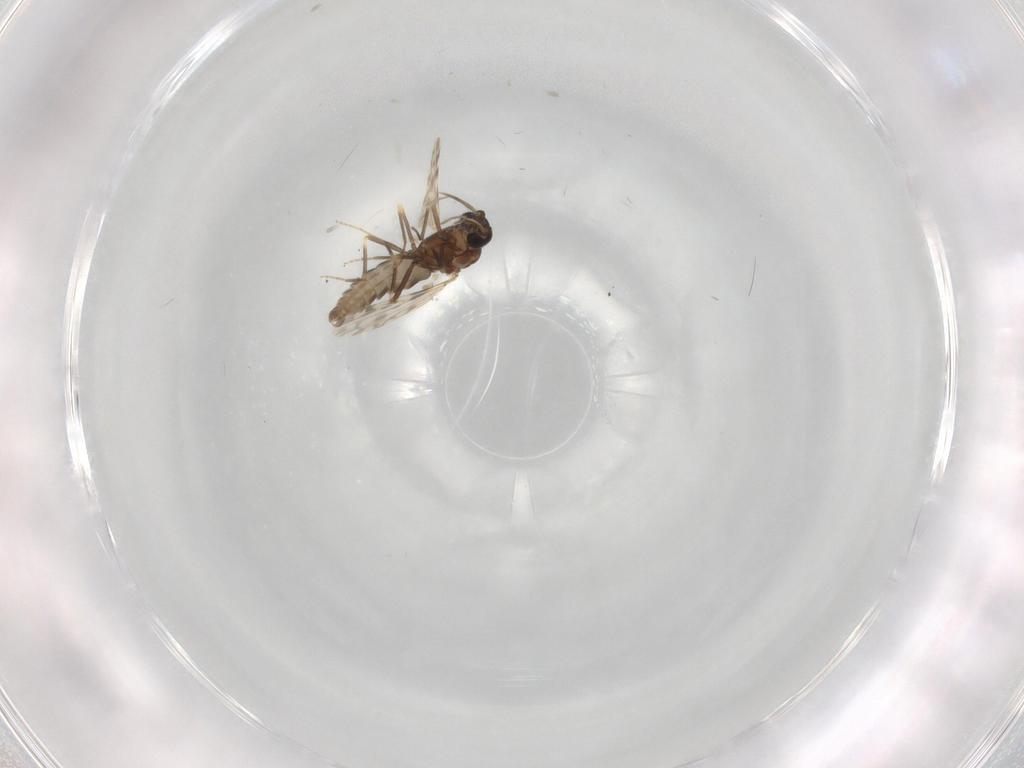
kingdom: Animalia
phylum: Arthropoda
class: Insecta
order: Diptera
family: Ceratopogonidae
